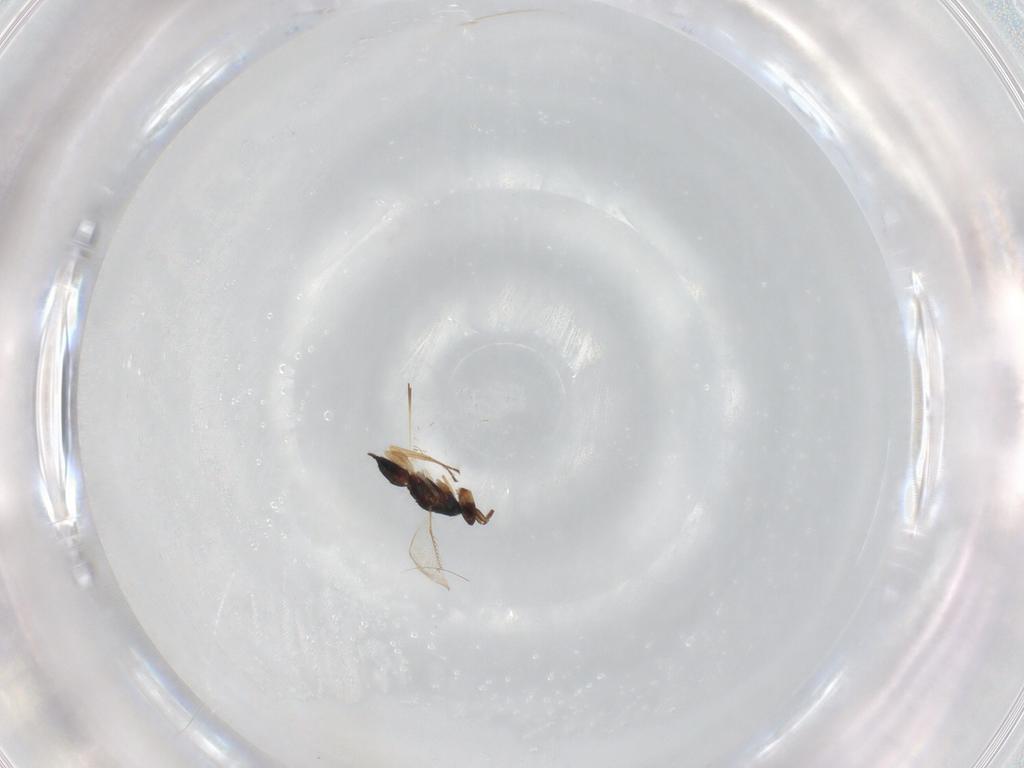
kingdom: Animalia
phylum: Arthropoda
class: Insecta
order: Hymenoptera
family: Eulophidae
